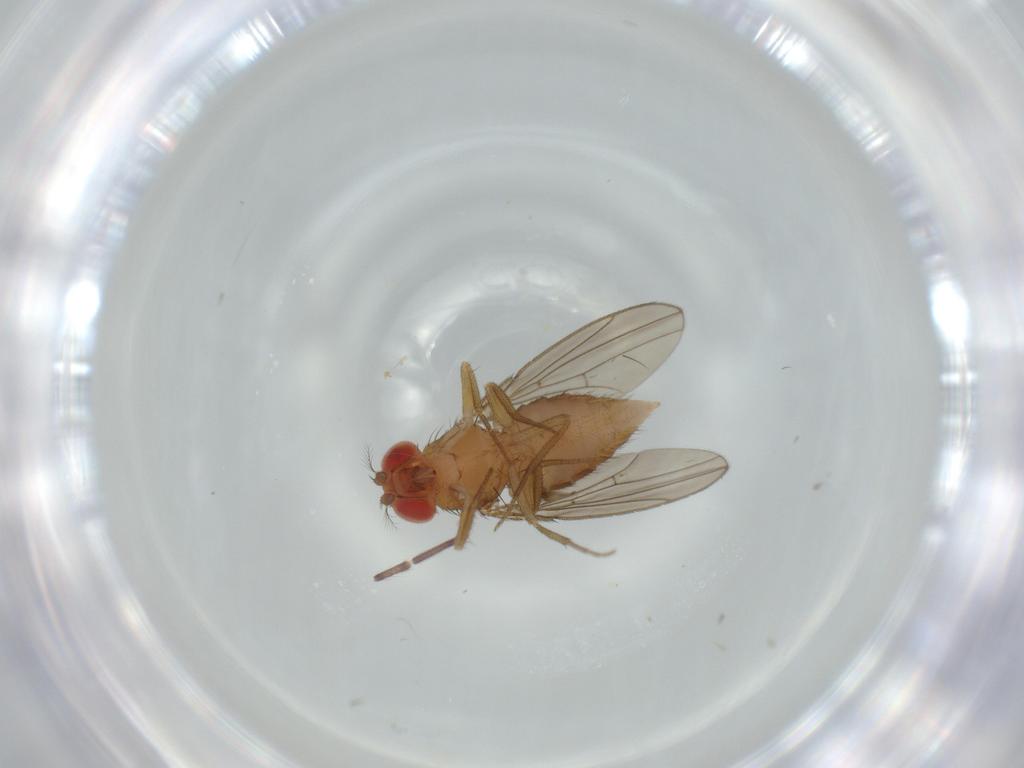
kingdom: Animalia
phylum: Arthropoda
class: Insecta
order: Diptera
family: Drosophilidae
